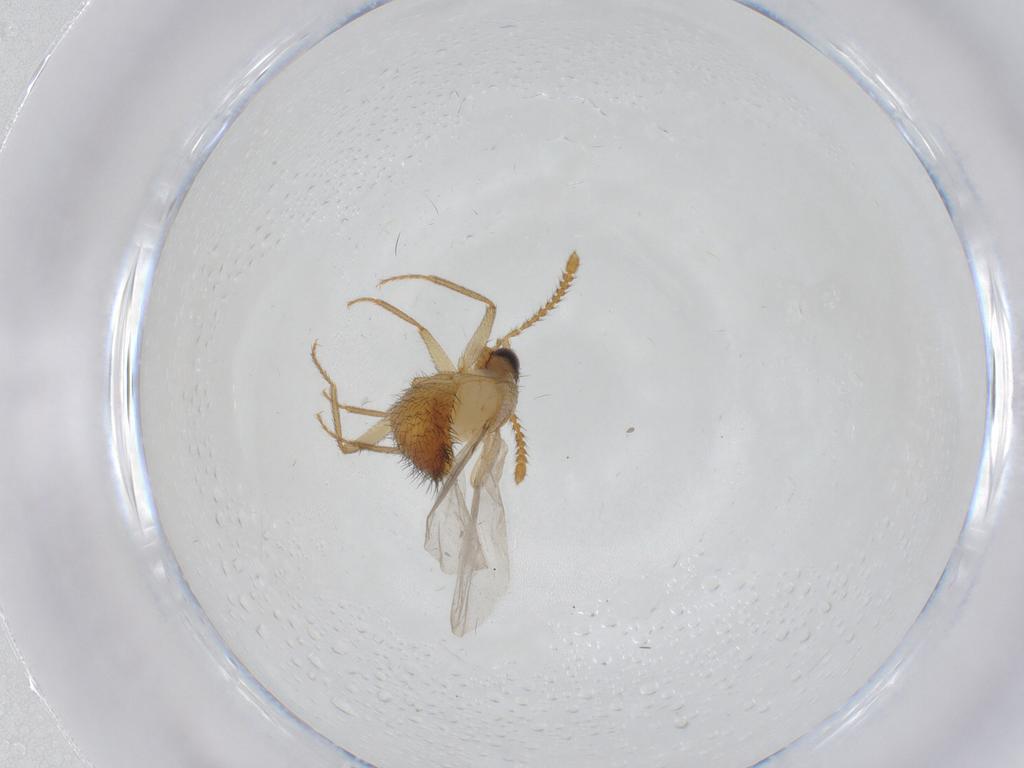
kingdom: Animalia
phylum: Arthropoda
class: Insecta
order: Coleoptera
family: Staphylinidae
